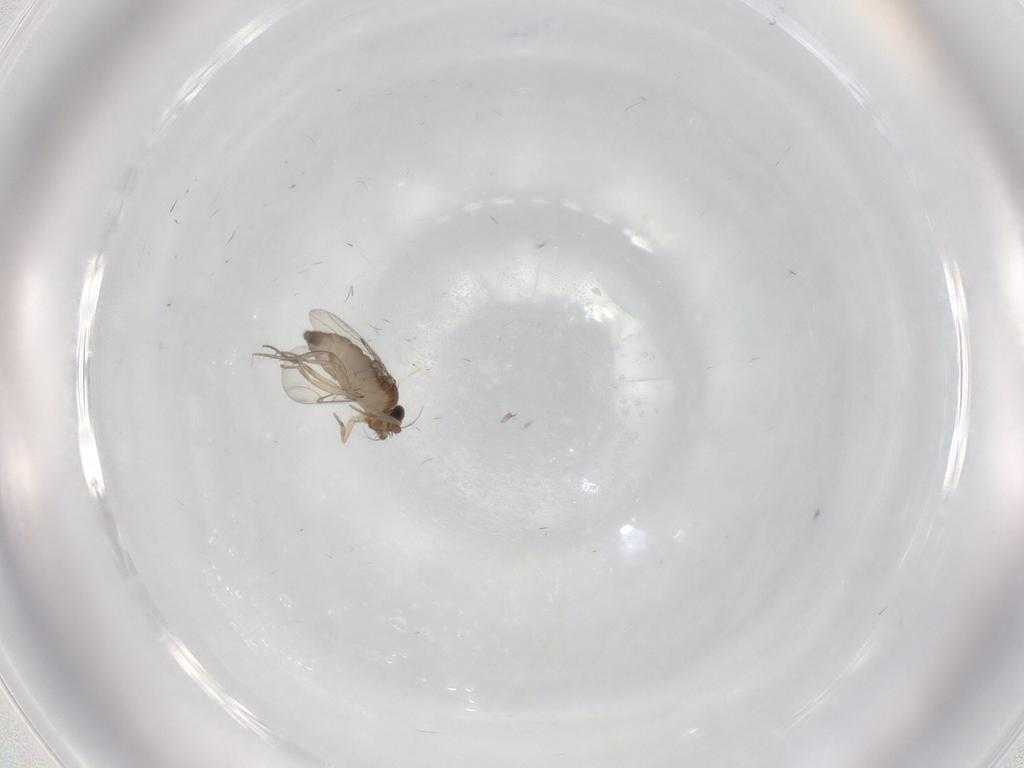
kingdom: Animalia
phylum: Arthropoda
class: Insecta
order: Diptera
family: Phoridae
